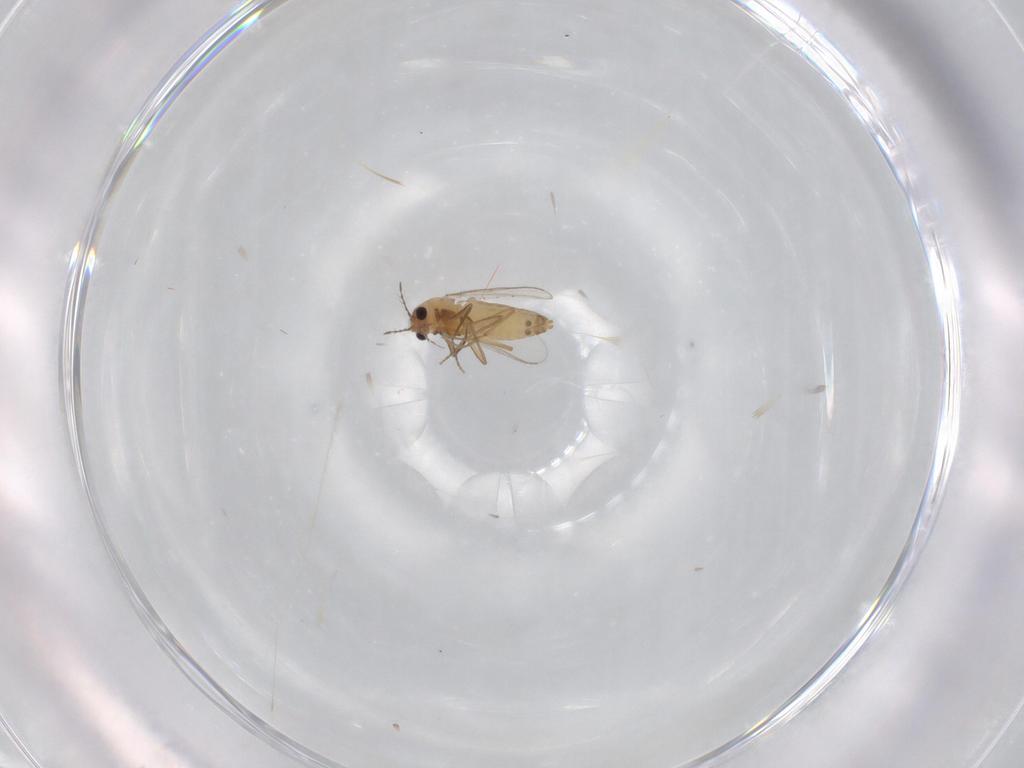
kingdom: Animalia
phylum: Arthropoda
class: Insecta
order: Diptera
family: Chironomidae
